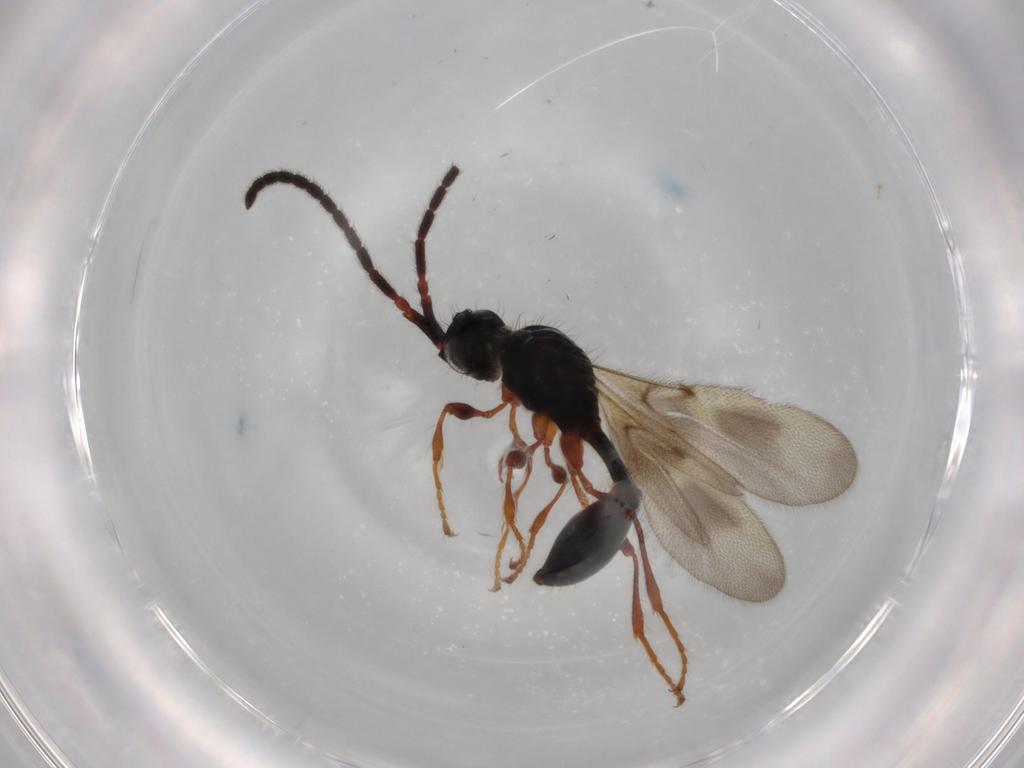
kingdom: Animalia
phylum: Arthropoda
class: Insecta
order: Hymenoptera
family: Diapriidae
